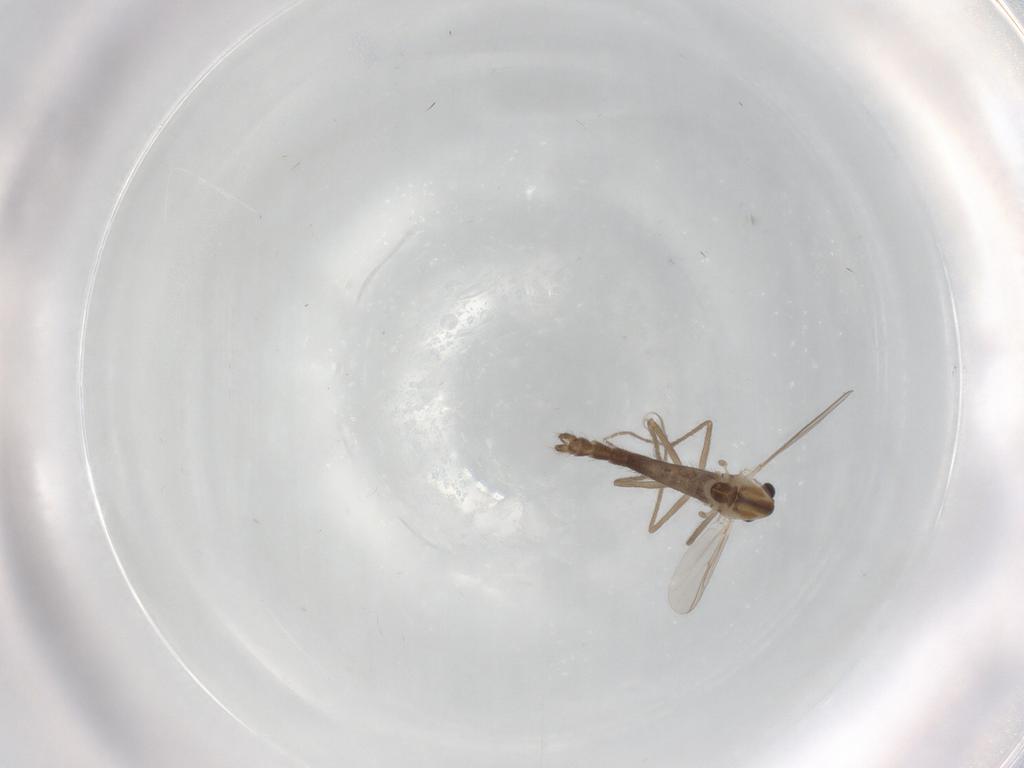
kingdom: Animalia
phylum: Arthropoda
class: Insecta
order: Diptera
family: Chironomidae
